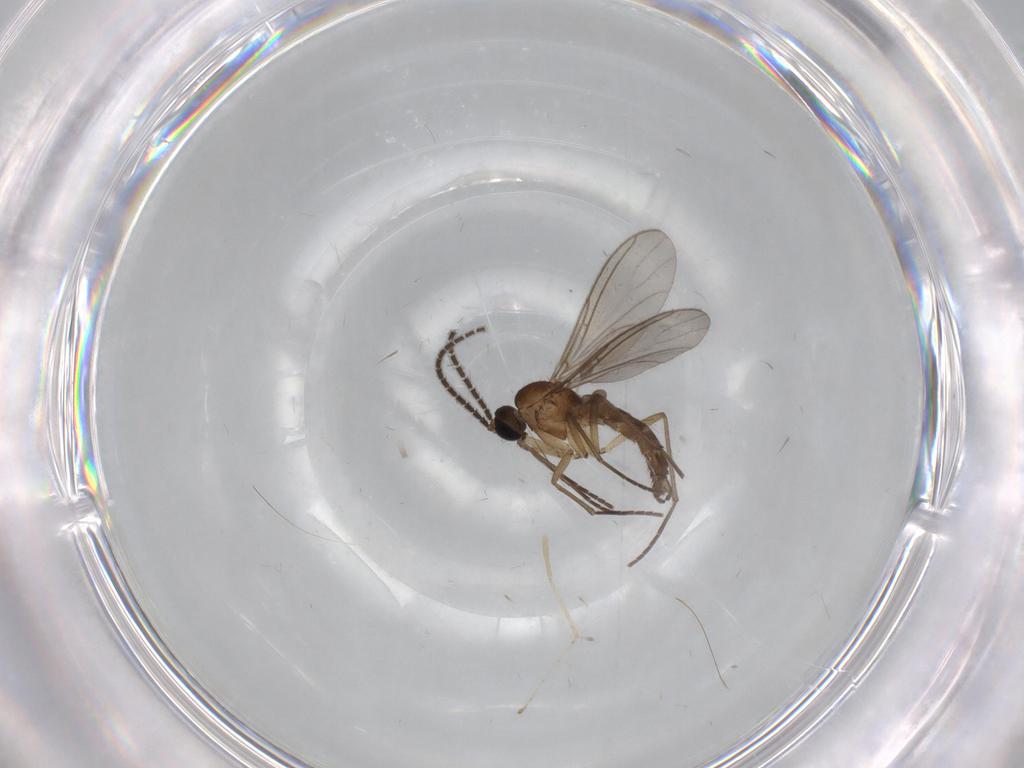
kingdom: Animalia
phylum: Arthropoda
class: Insecta
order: Diptera
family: Sciaridae
